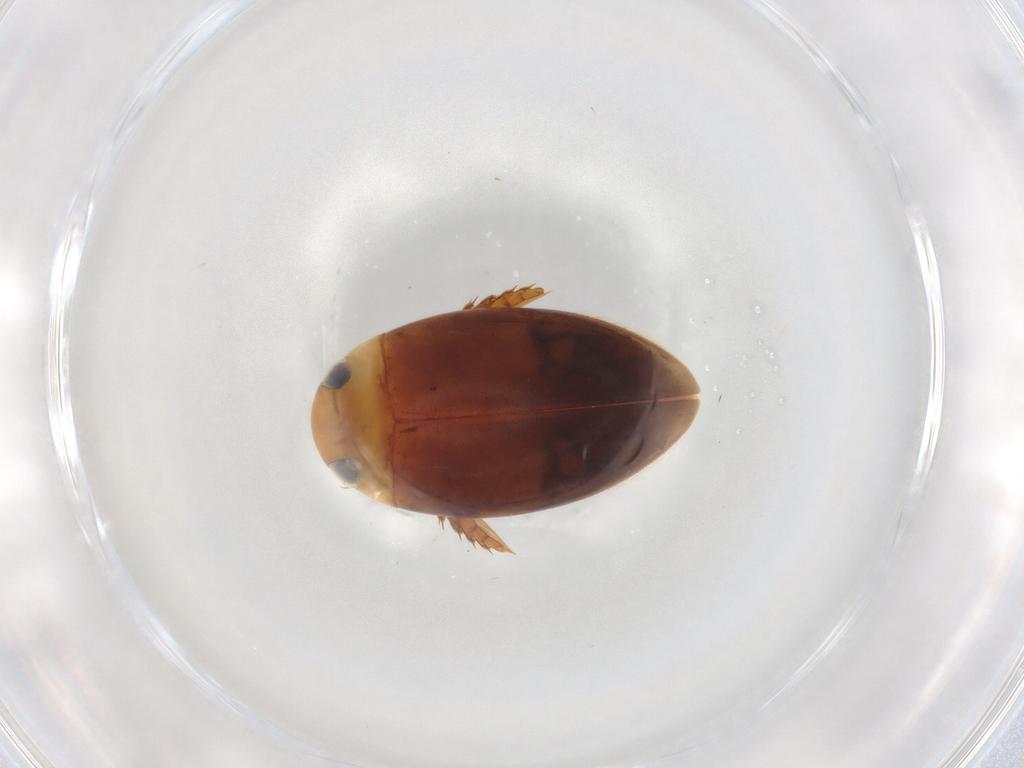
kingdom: Animalia
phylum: Arthropoda
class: Insecta
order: Coleoptera
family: Dytiscidae
